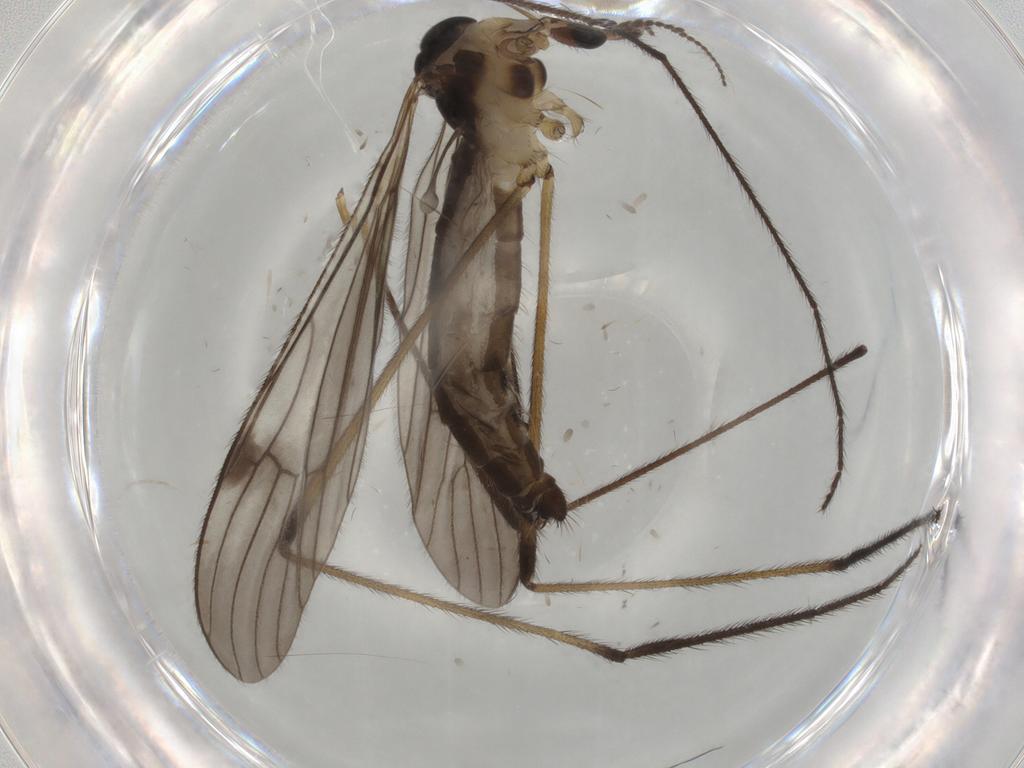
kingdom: Animalia
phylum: Arthropoda
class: Insecta
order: Diptera
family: Limoniidae
